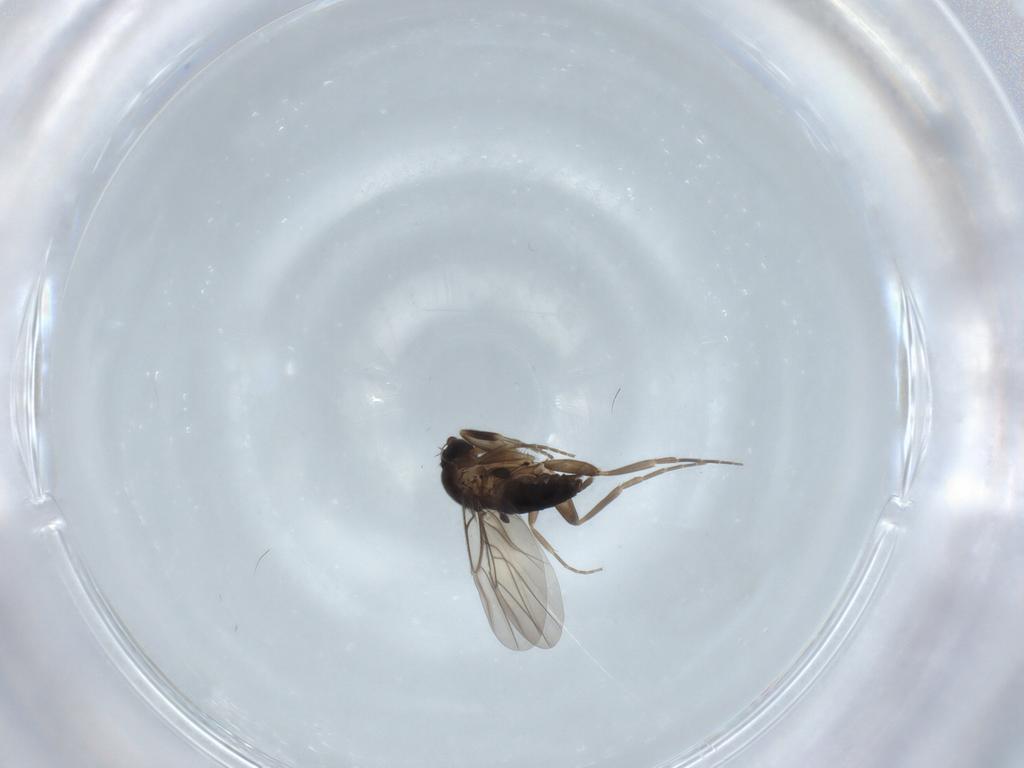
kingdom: Animalia
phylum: Arthropoda
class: Insecta
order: Diptera
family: Phoridae
